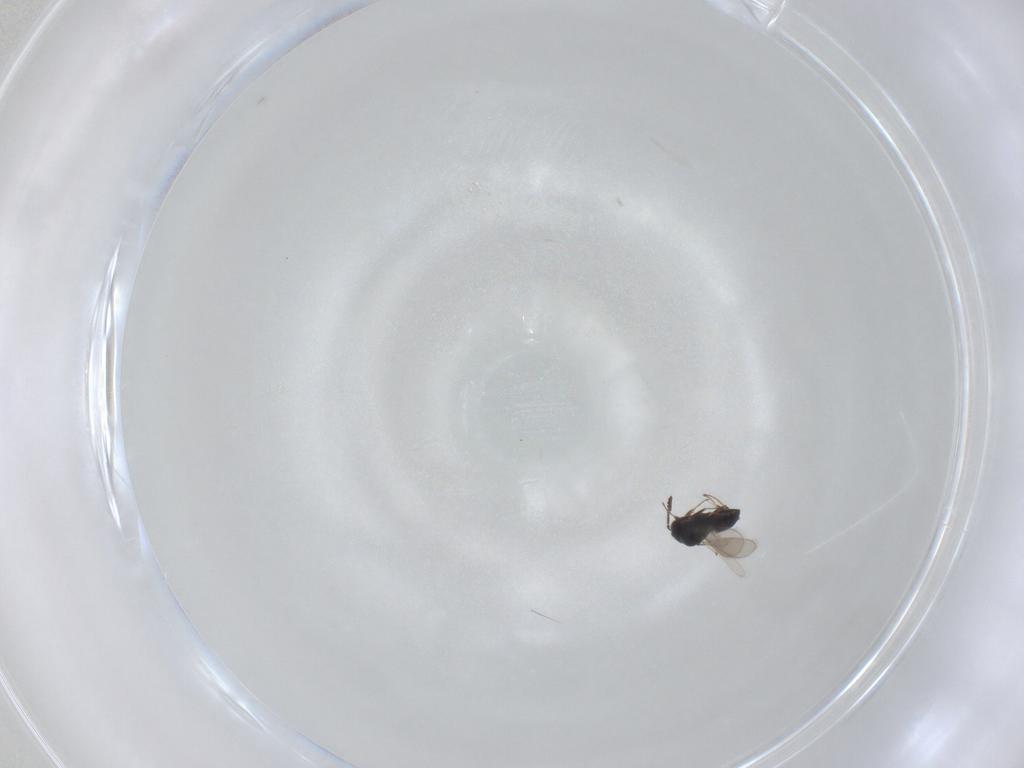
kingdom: Animalia
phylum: Arthropoda
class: Insecta
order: Hymenoptera
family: Scelionidae
